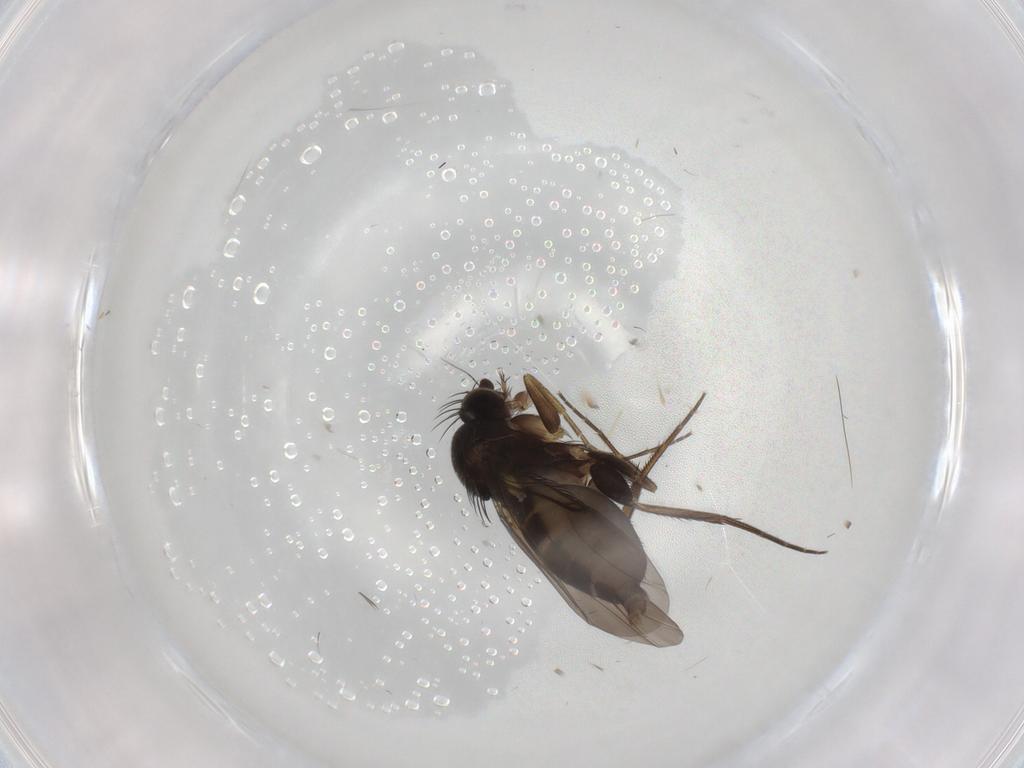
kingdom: Animalia
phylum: Arthropoda
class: Insecta
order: Diptera
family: Phoridae
